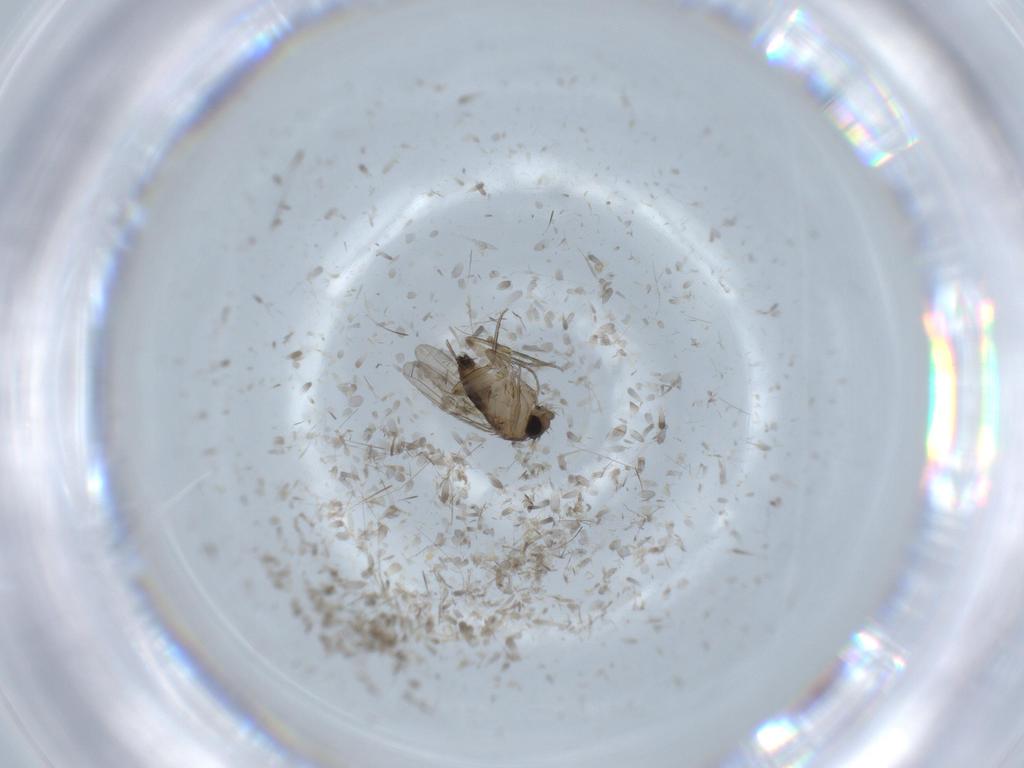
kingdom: Animalia
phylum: Arthropoda
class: Insecta
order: Diptera
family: Phoridae
